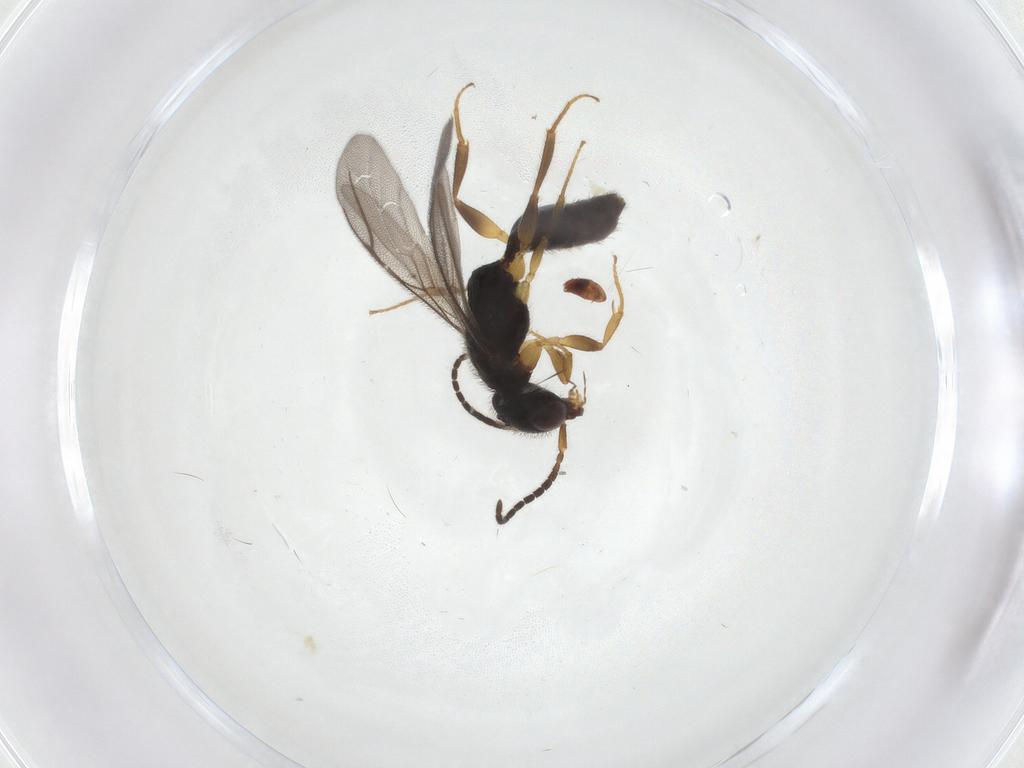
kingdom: Animalia
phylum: Arthropoda
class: Insecta
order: Hymenoptera
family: Bethylidae
